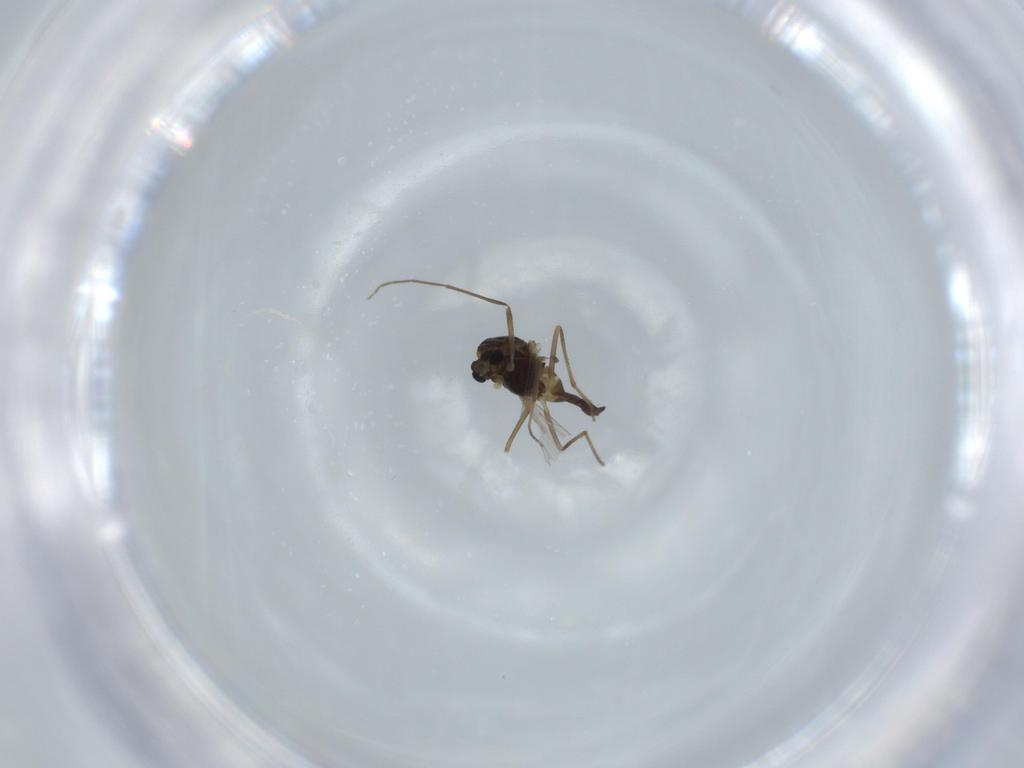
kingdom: Animalia
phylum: Arthropoda
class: Insecta
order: Diptera
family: Chironomidae
